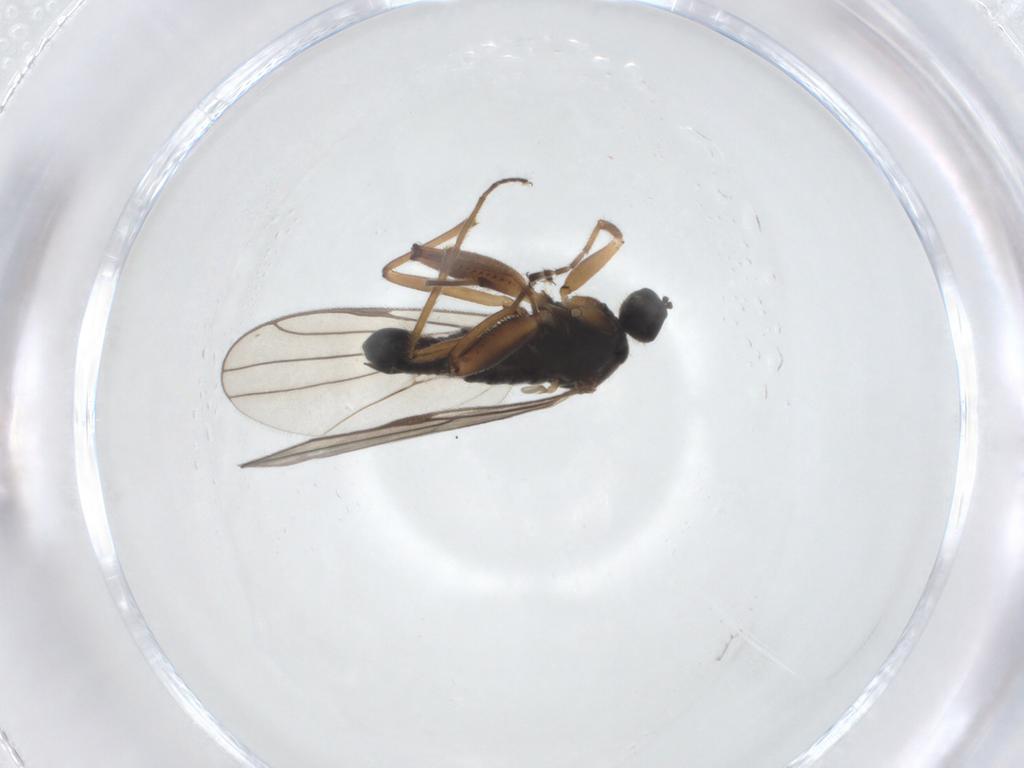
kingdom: Animalia
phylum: Arthropoda
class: Insecta
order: Diptera
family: Hybotidae
